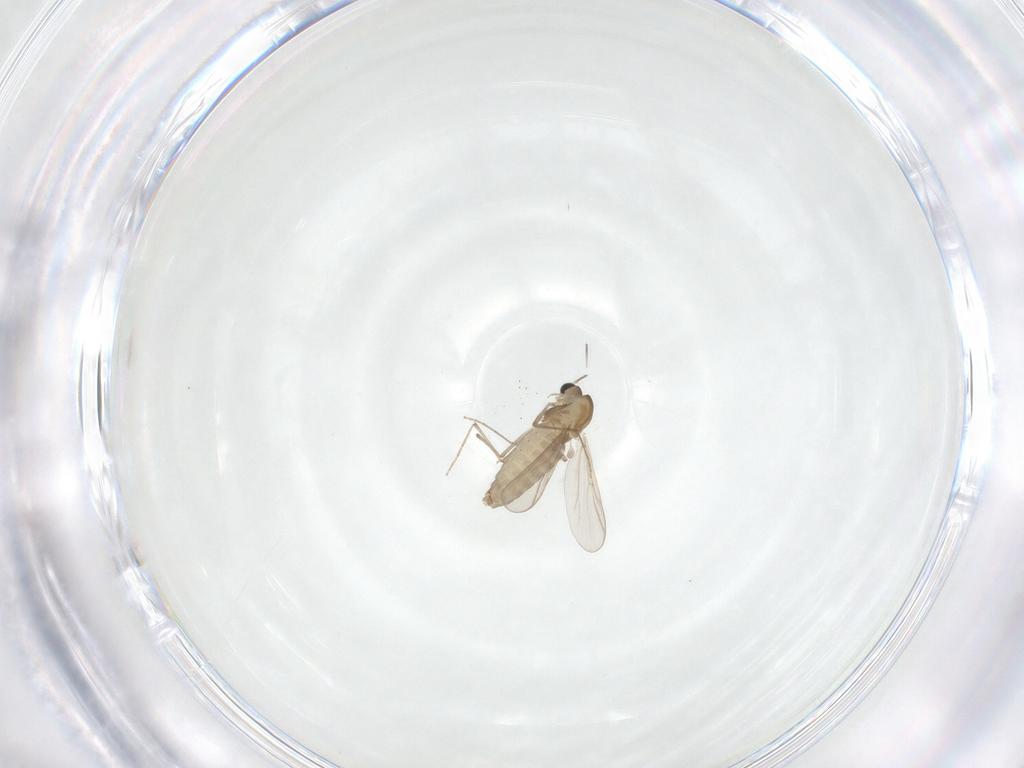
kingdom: Animalia
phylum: Arthropoda
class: Insecta
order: Diptera
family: Chironomidae
